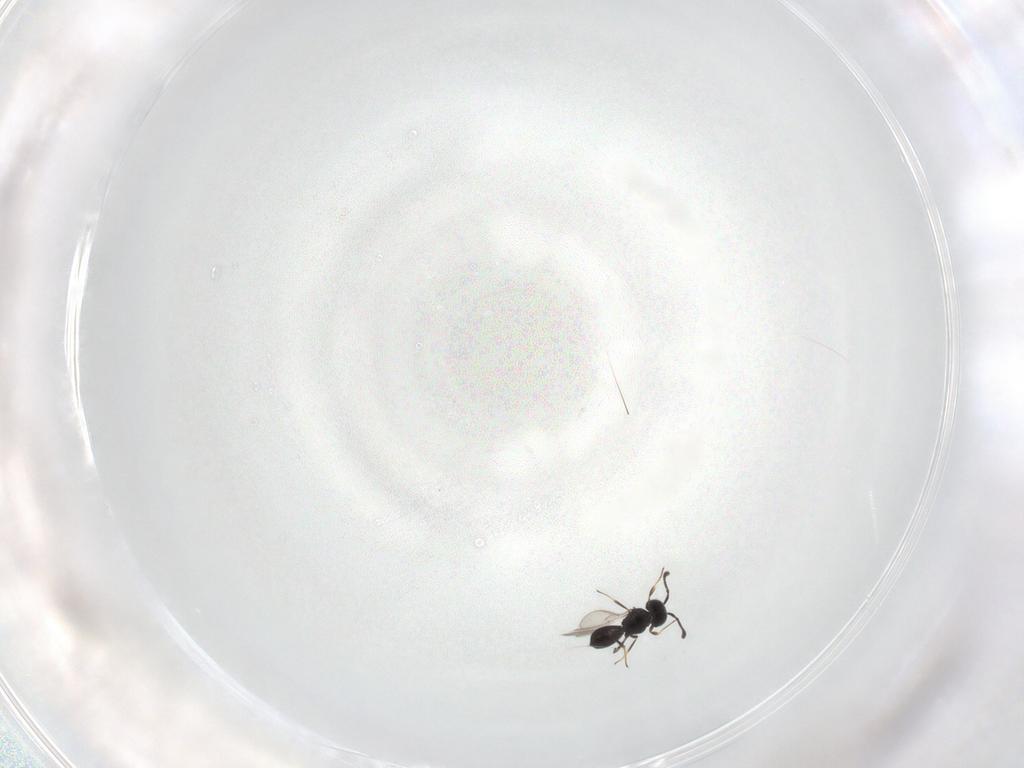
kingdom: Animalia
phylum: Arthropoda
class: Insecta
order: Hymenoptera
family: Scelionidae
